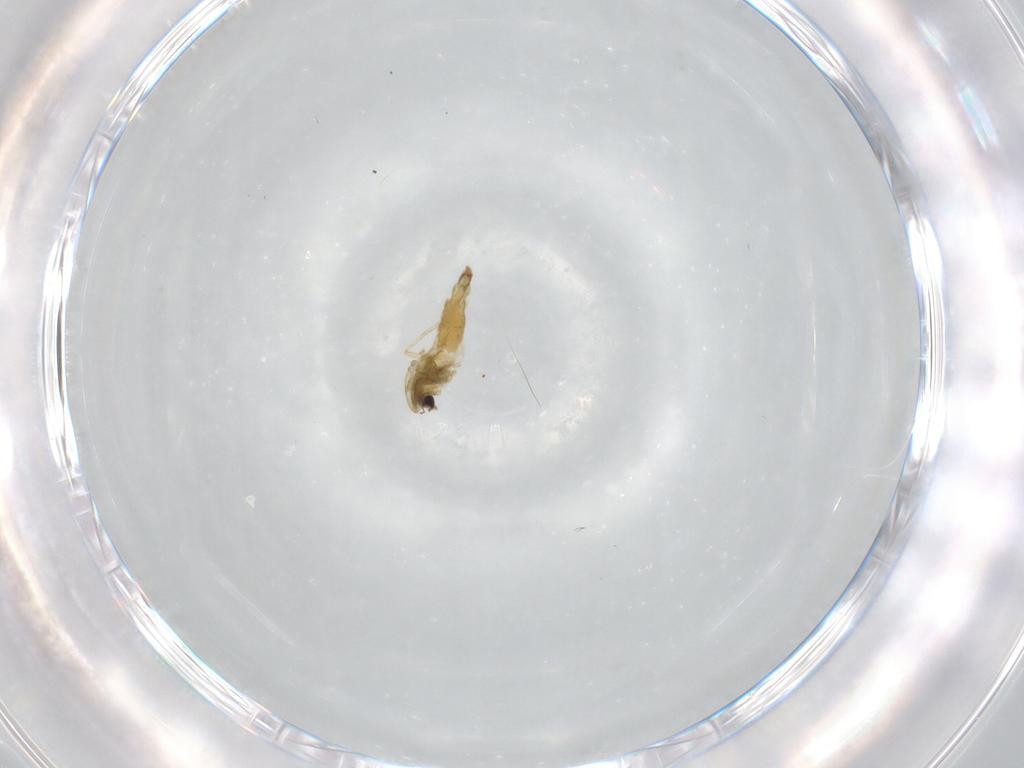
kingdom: Animalia
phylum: Arthropoda
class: Insecta
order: Diptera
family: Chironomidae
